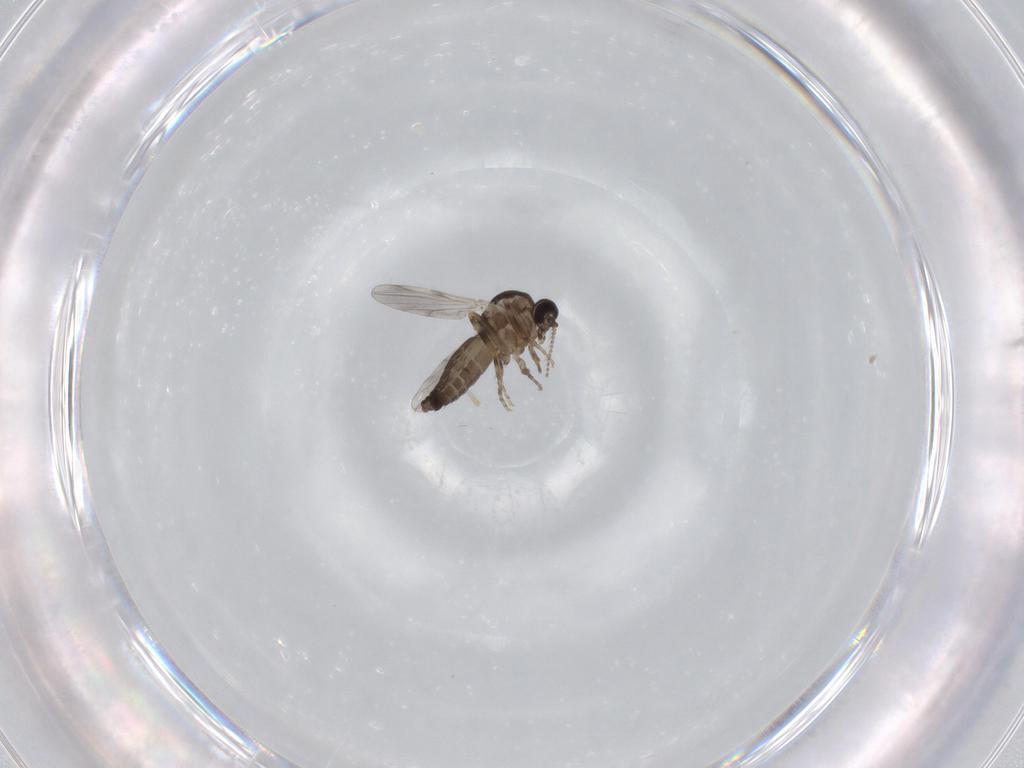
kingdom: Animalia
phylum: Arthropoda
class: Insecta
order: Diptera
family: Ceratopogonidae
